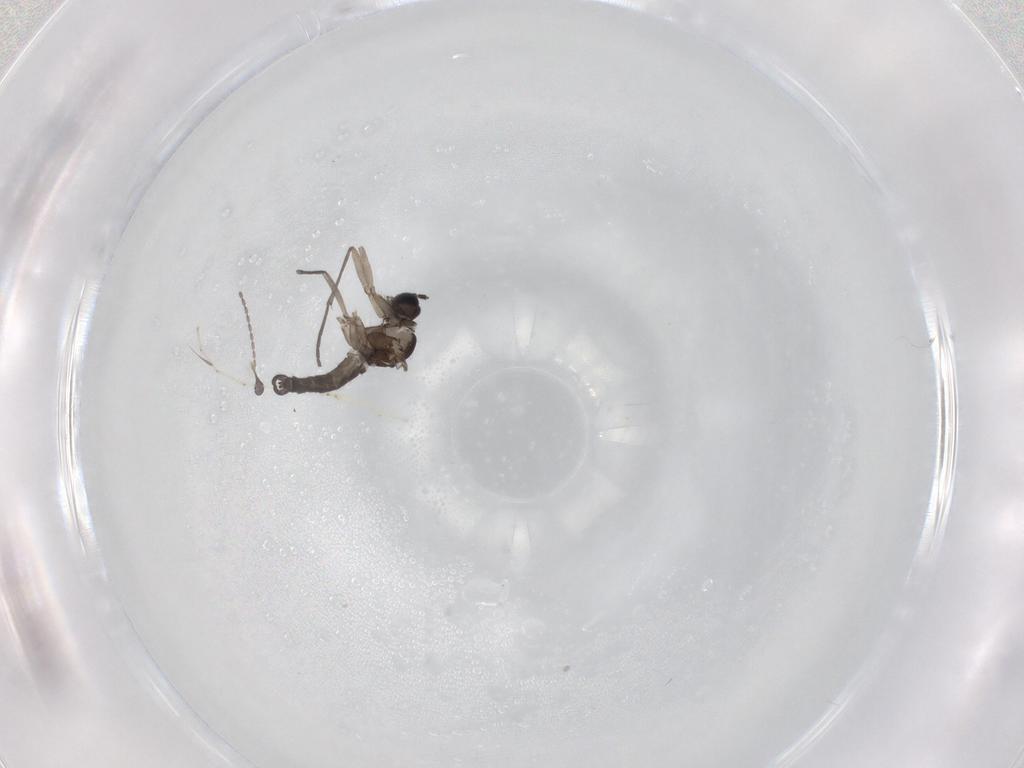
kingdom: Animalia
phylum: Arthropoda
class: Insecta
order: Diptera
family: Sciaridae
